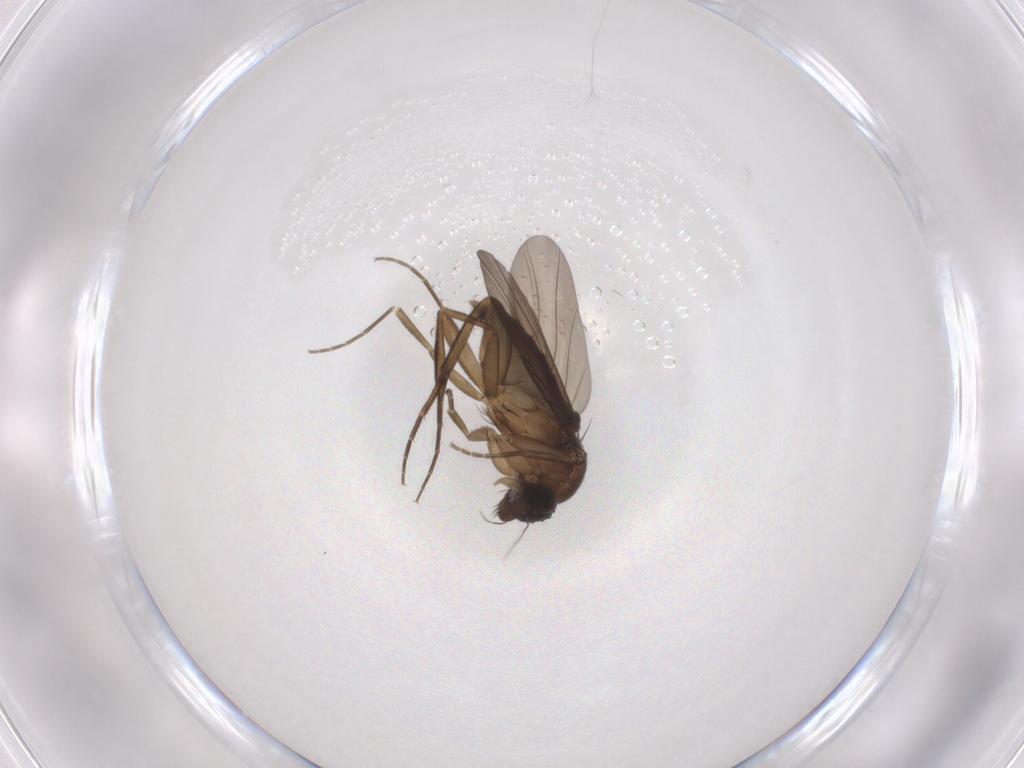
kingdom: Animalia
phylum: Arthropoda
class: Insecta
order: Diptera
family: Phoridae
